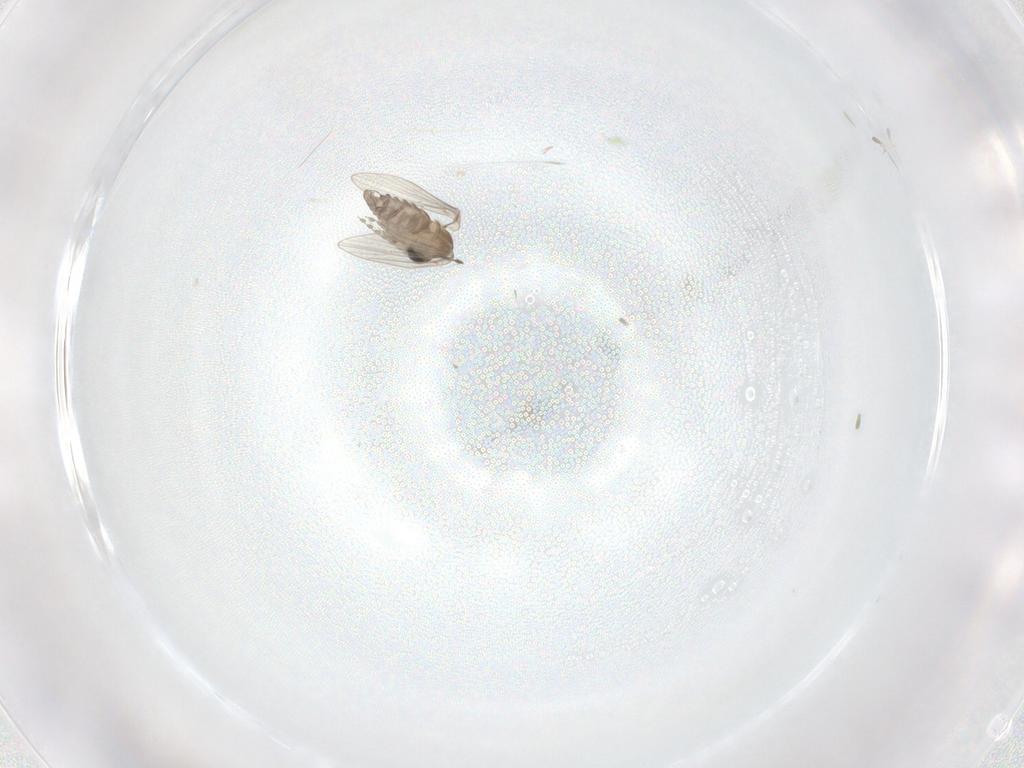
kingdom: Animalia
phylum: Arthropoda
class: Insecta
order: Diptera
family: Cecidomyiidae
